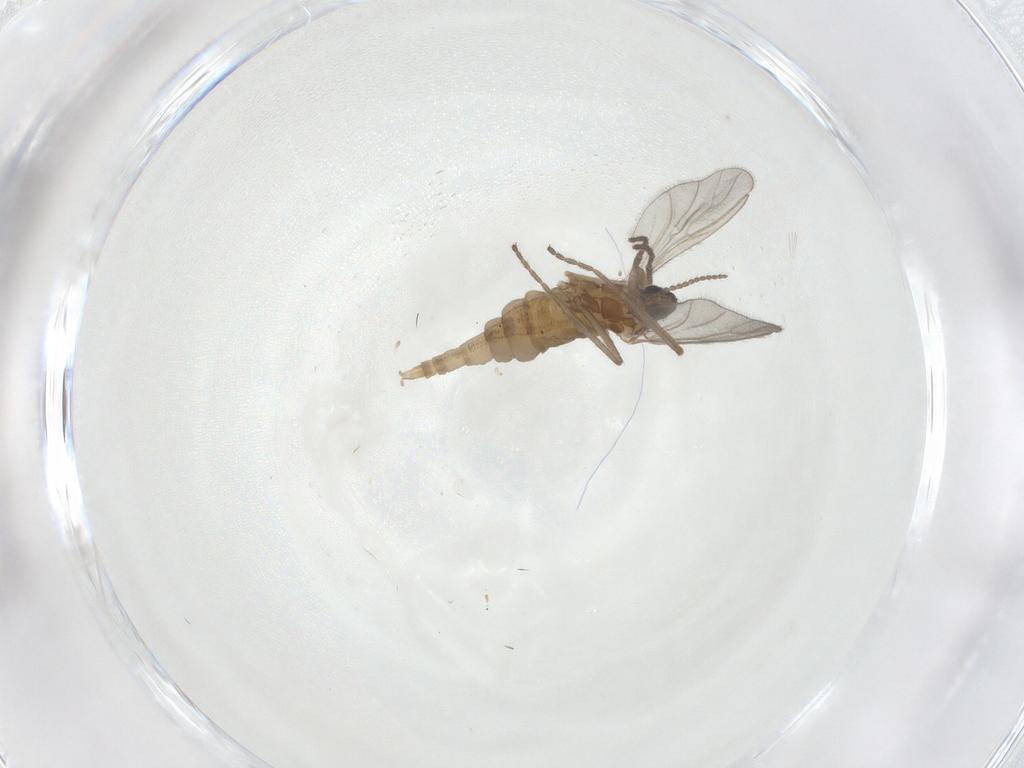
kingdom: Animalia
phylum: Arthropoda
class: Insecta
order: Diptera
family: Cecidomyiidae
